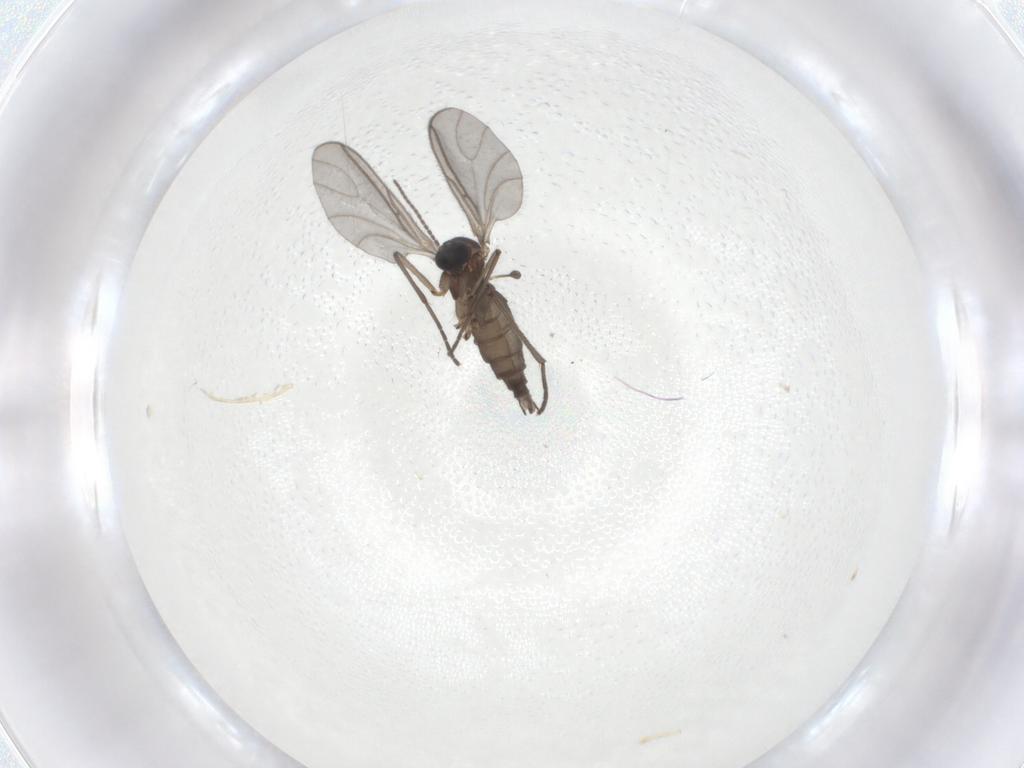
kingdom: Animalia
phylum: Arthropoda
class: Insecta
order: Diptera
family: Sciaridae
